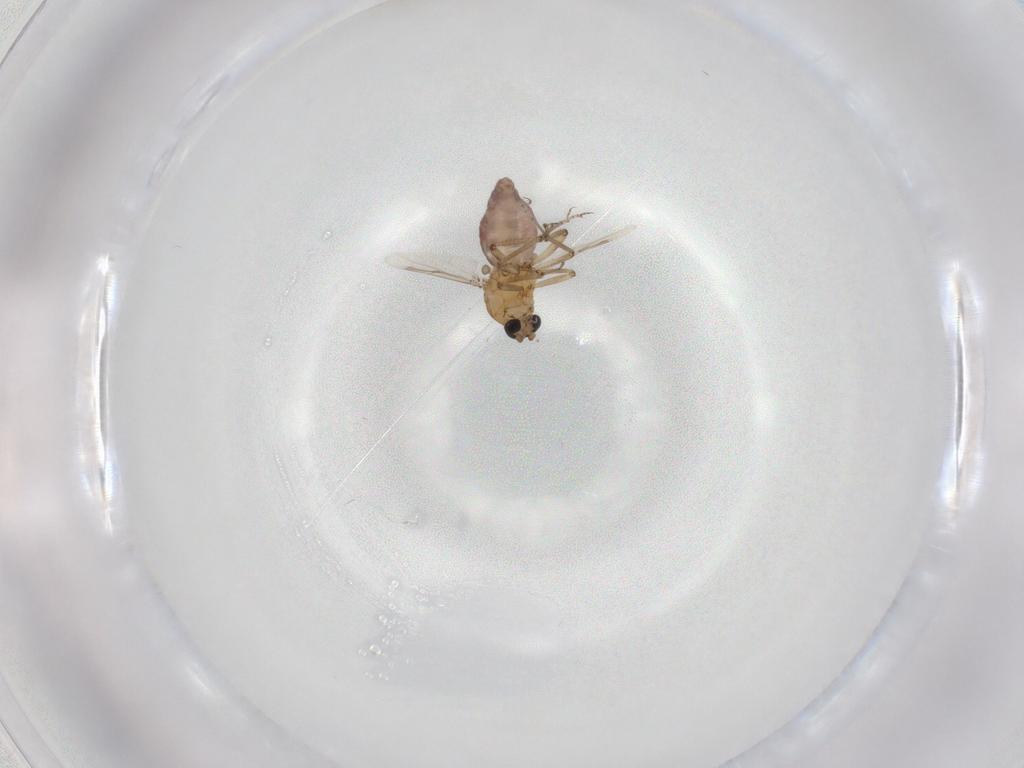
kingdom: Animalia
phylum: Arthropoda
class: Insecta
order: Diptera
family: Ceratopogonidae
